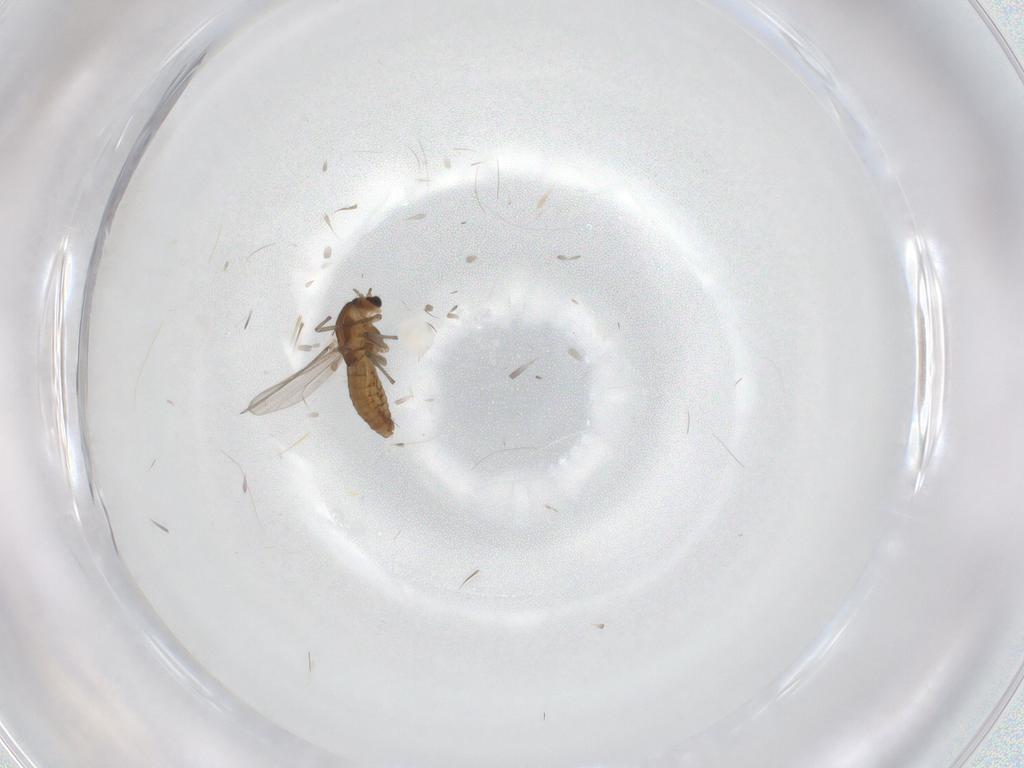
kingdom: Animalia
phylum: Arthropoda
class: Insecta
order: Diptera
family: Chironomidae
